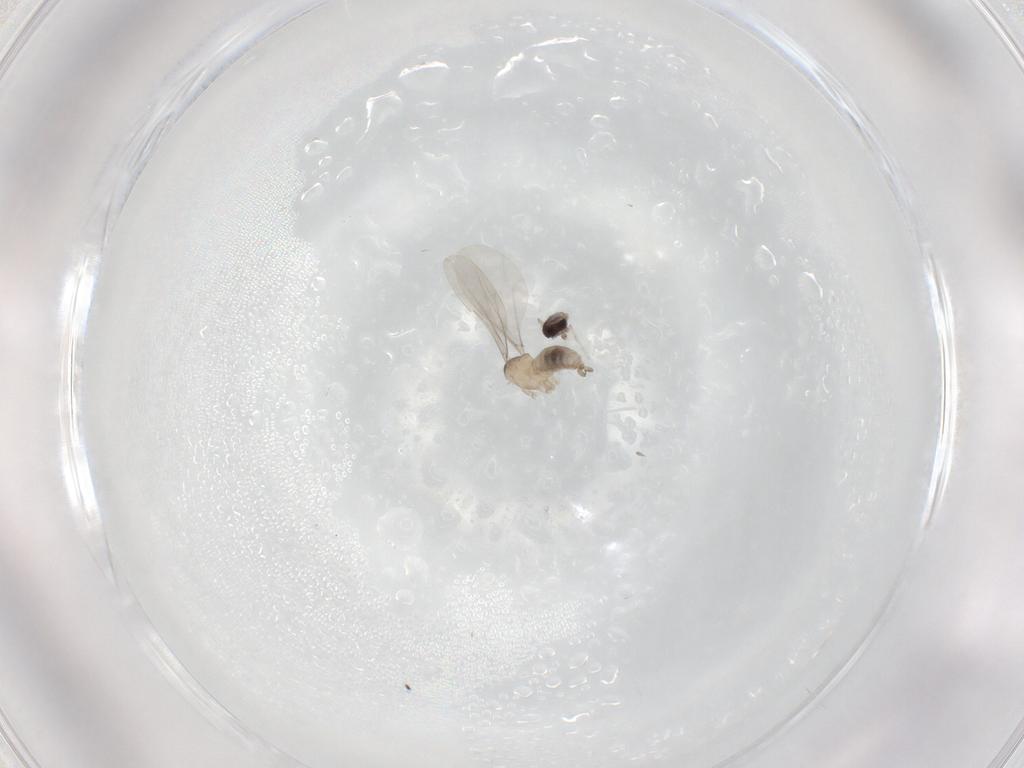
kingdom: Animalia
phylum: Arthropoda
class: Insecta
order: Diptera
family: Cecidomyiidae
